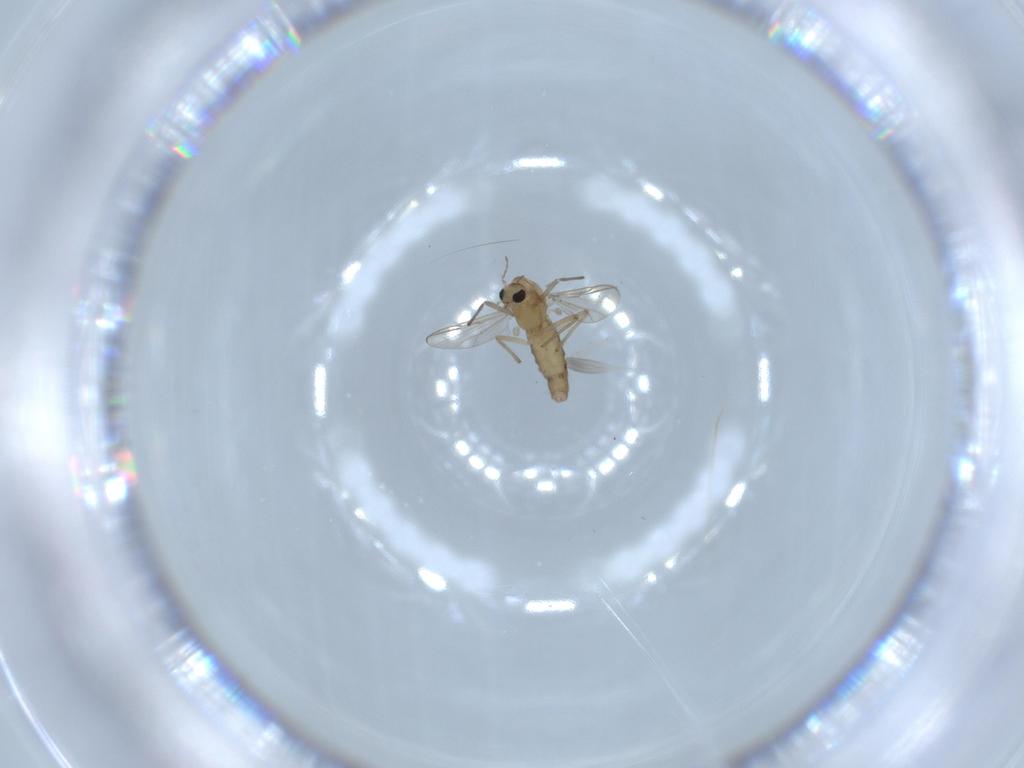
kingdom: Animalia
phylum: Arthropoda
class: Insecta
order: Diptera
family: Chironomidae
